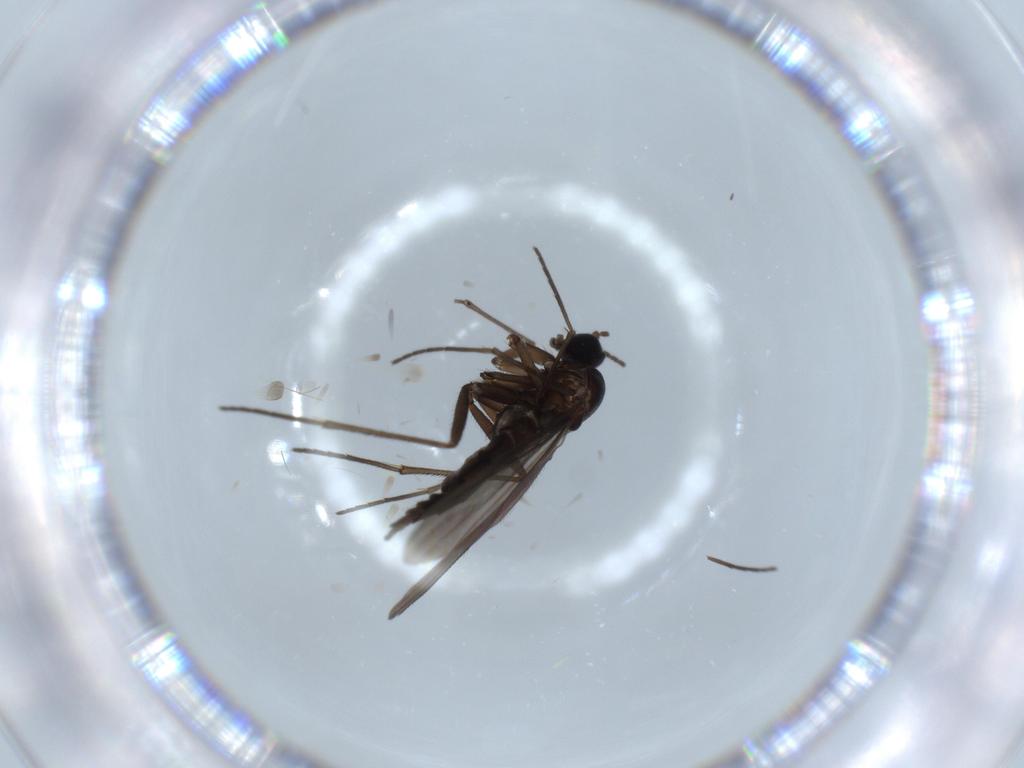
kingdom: Animalia
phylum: Arthropoda
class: Insecta
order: Diptera
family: Sciaridae
